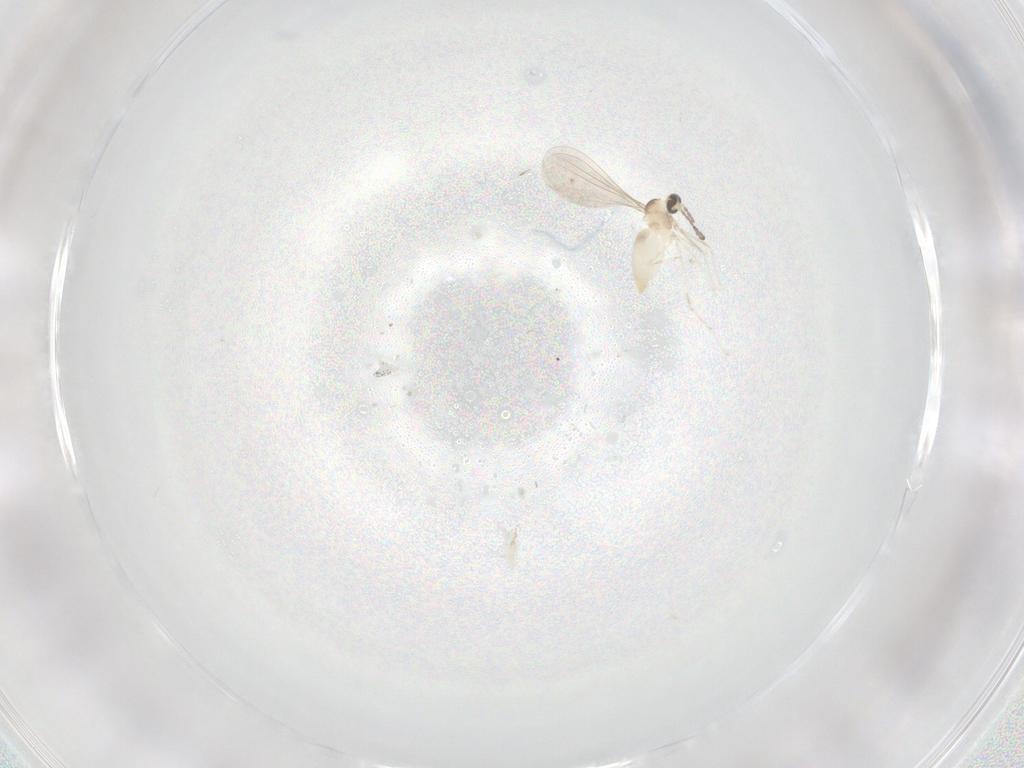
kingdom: Animalia
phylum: Arthropoda
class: Insecta
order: Diptera
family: Cecidomyiidae
